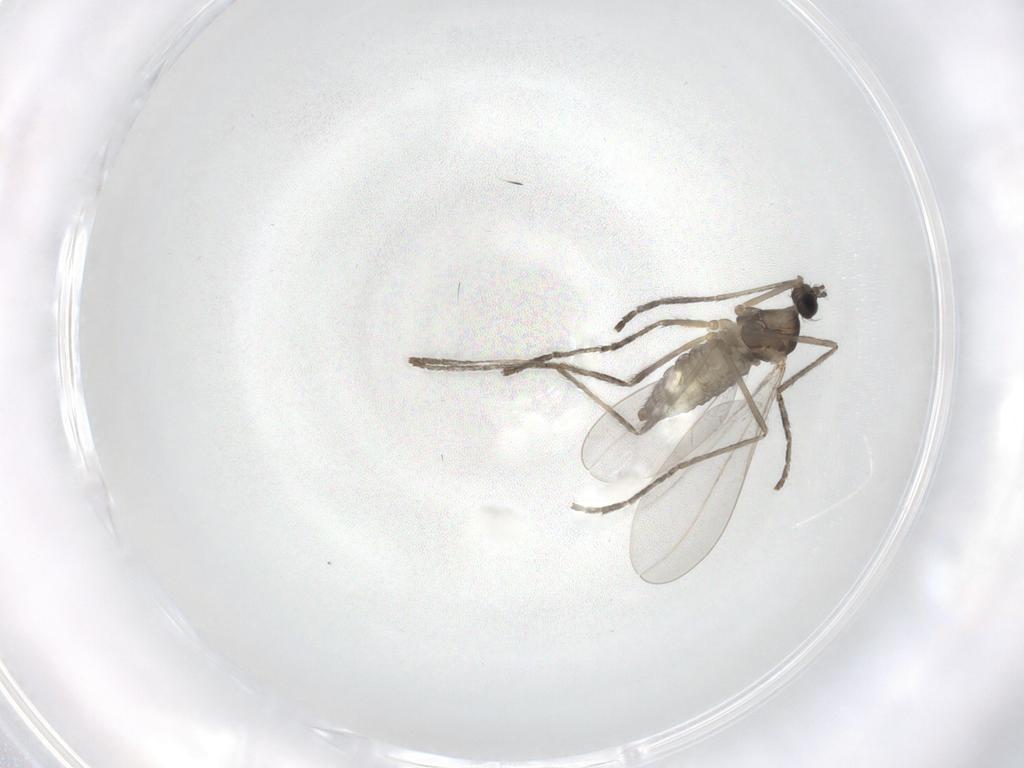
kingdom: Animalia
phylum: Arthropoda
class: Insecta
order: Diptera
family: Cecidomyiidae
